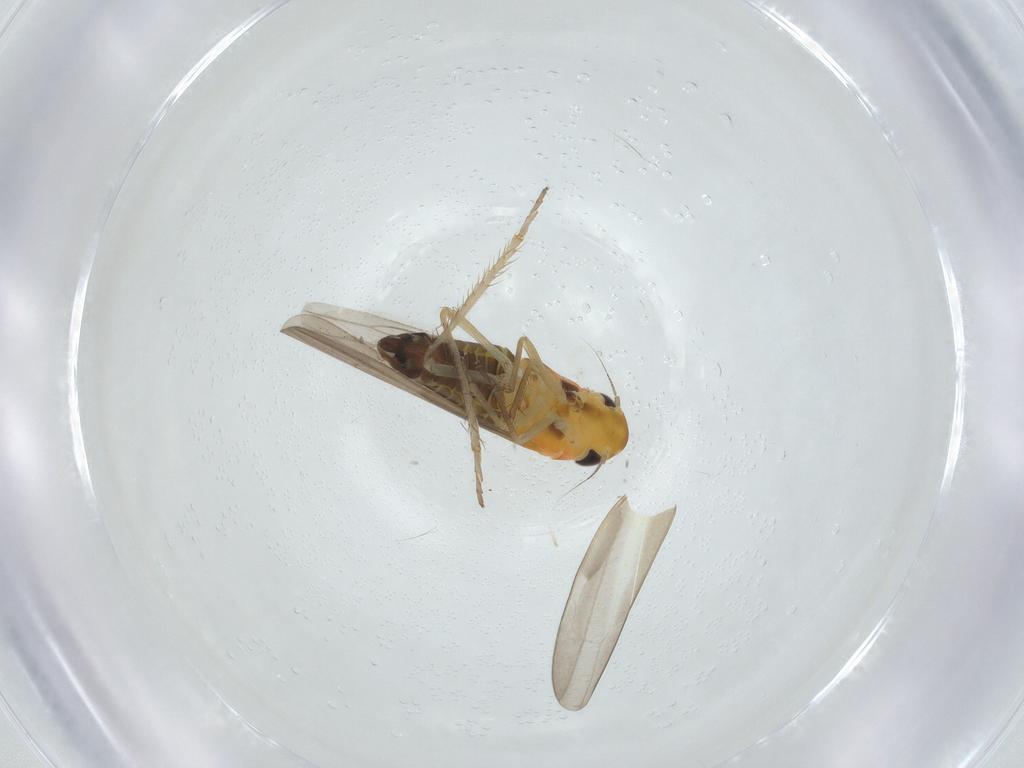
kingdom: Animalia
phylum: Arthropoda
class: Insecta
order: Hemiptera
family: Cicadellidae
